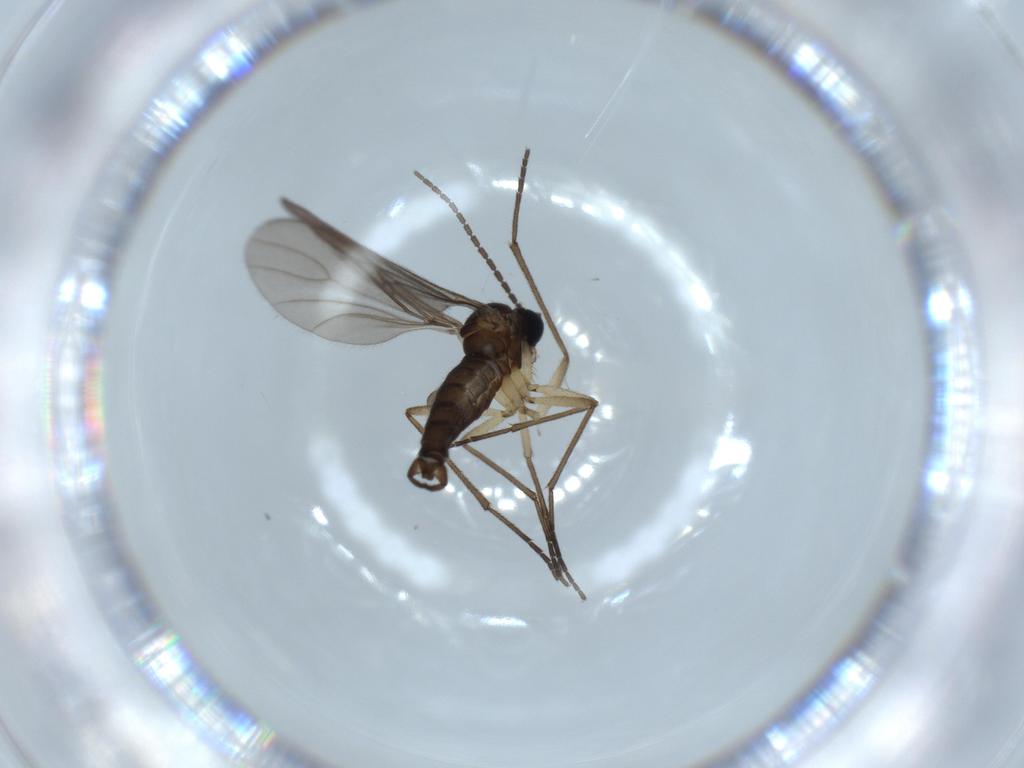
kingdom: Animalia
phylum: Arthropoda
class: Insecta
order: Diptera
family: Sciaridae
